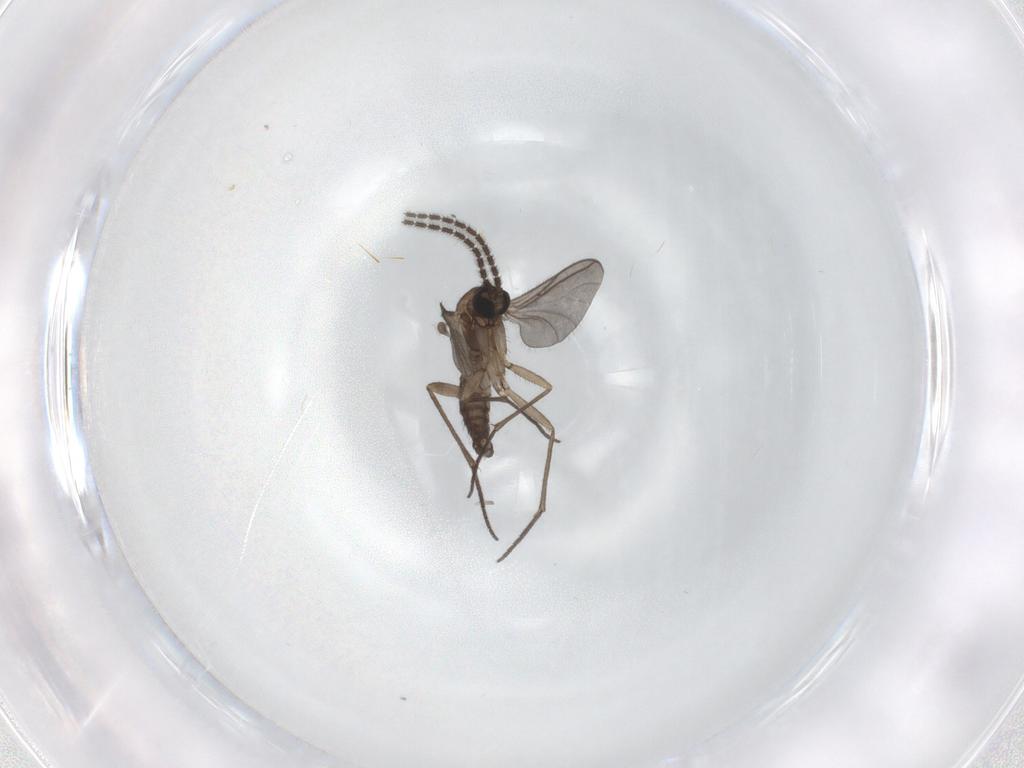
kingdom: Animalia
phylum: Arthropoda
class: Insecta
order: Diptera
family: Sciaridae
